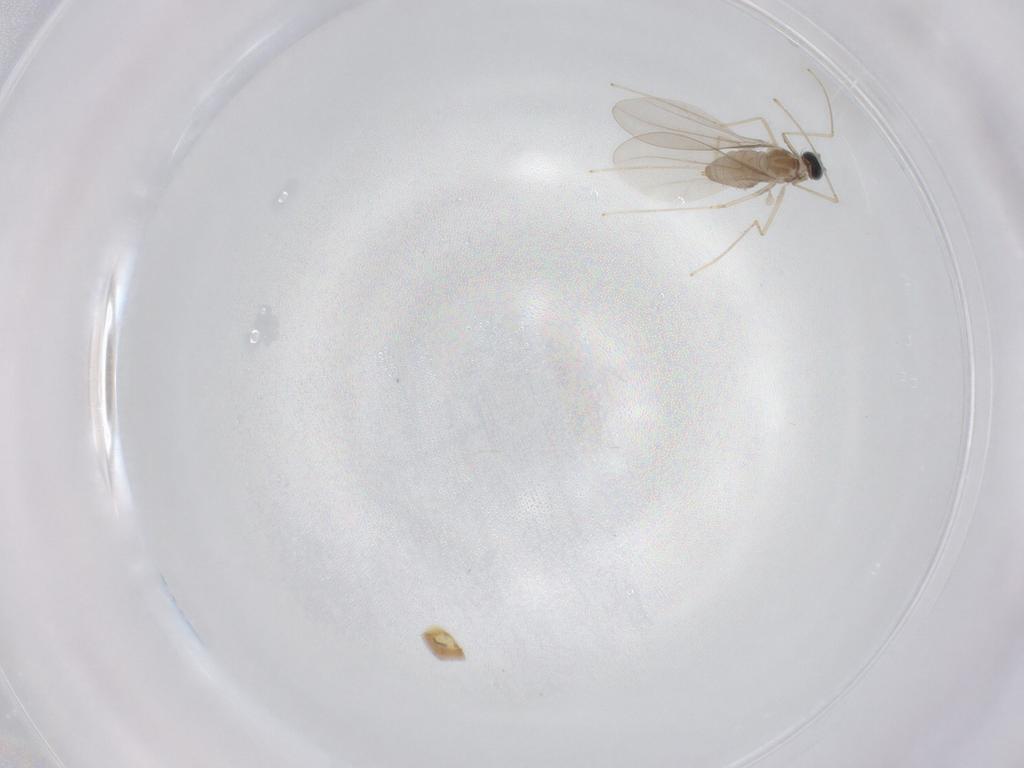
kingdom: Animalia
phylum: Arthropoda
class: Insecta
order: Diptera
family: Cecidomyiidae
